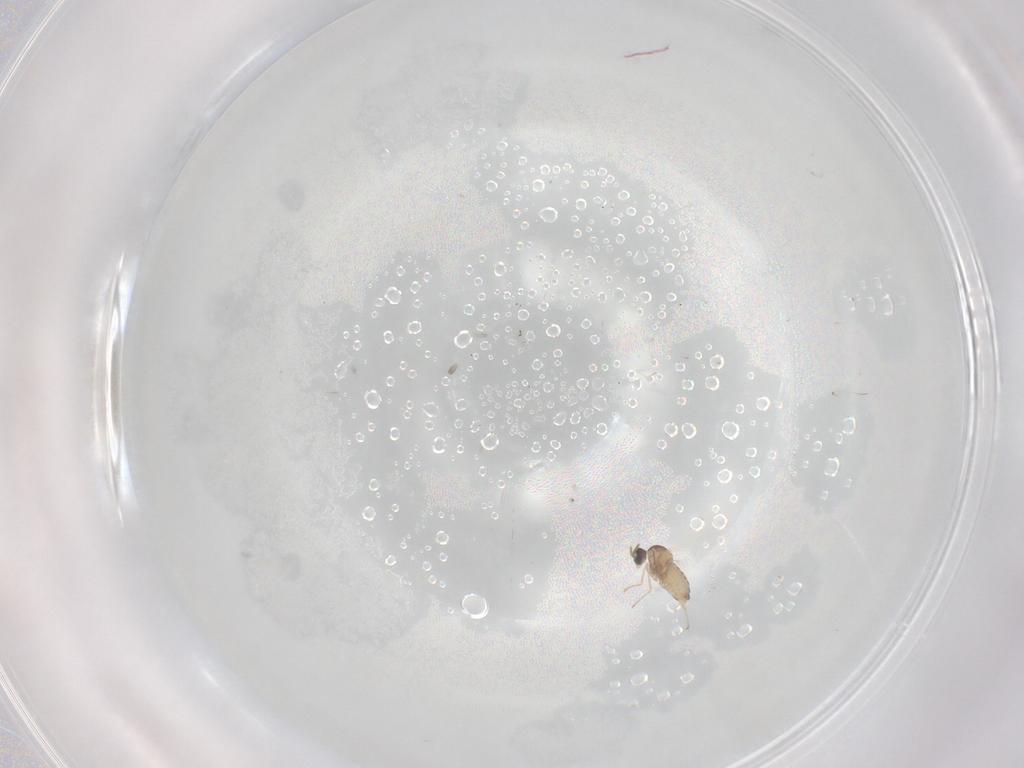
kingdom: Animalia
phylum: Arthropoda
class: Insecta
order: Diptera
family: Cecidomyiidae
